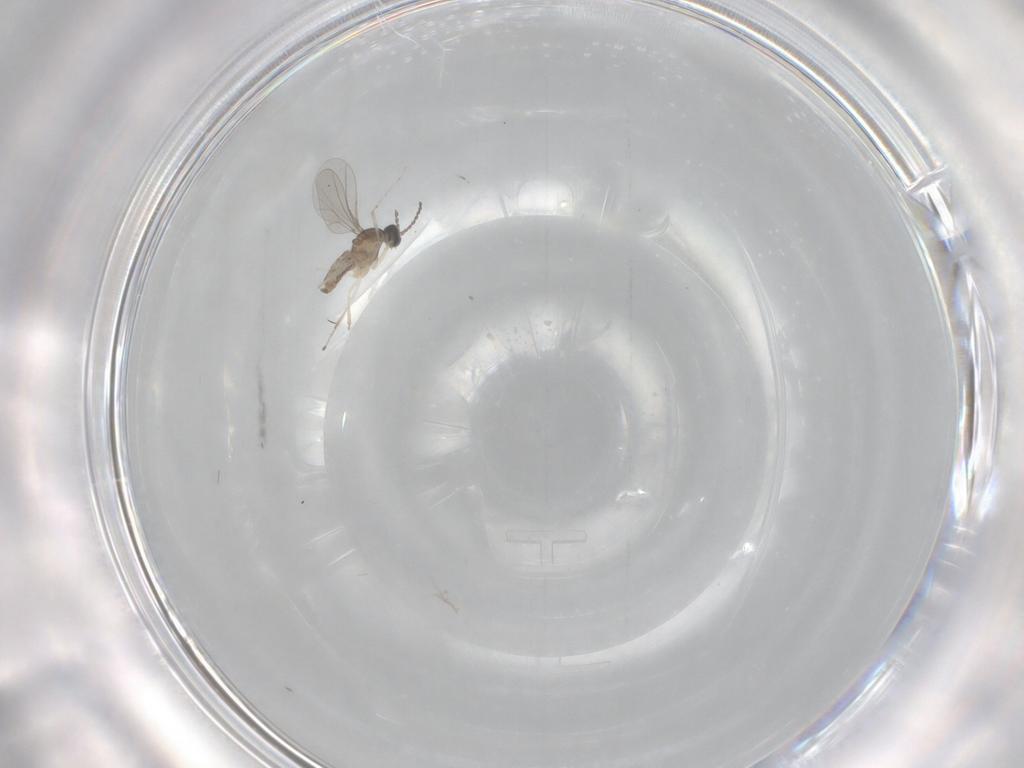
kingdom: Animalia
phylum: Arthropoda
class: Insecta
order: Diptera
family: Cecidomyiidae
